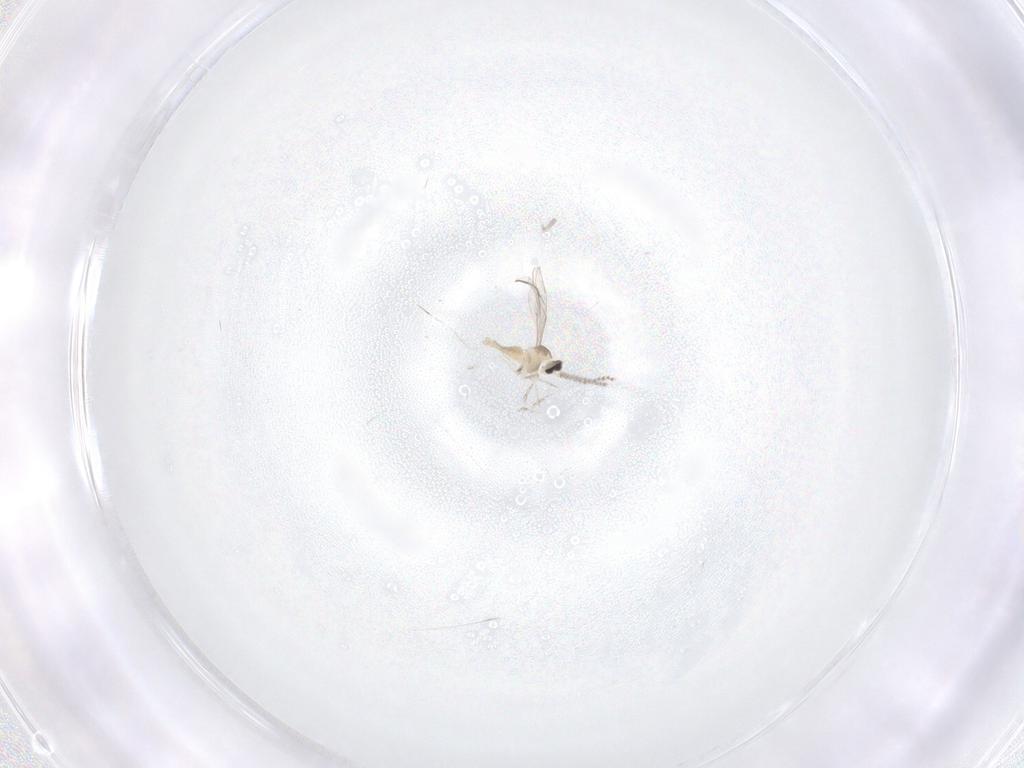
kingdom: Animalia
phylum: Arthropoda
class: Insecta
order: Diptera
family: Cecidomyiidae
